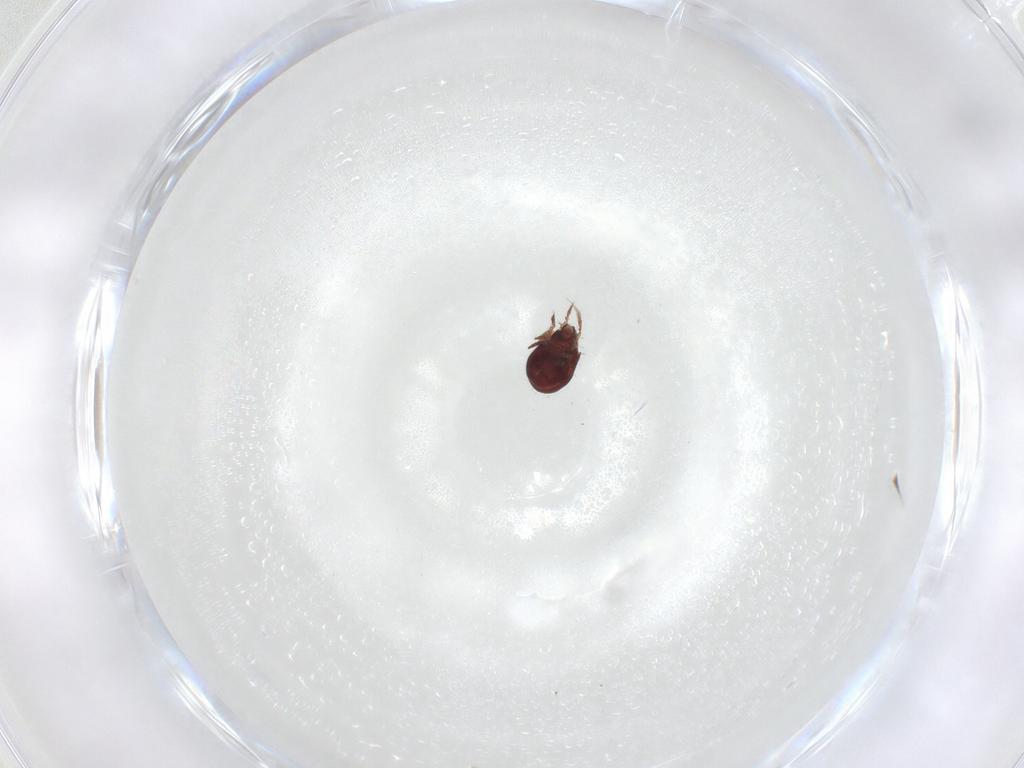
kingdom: Animalia
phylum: Arthropoda
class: Arachnida
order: Sarcoptiformes
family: Humerobatidae
